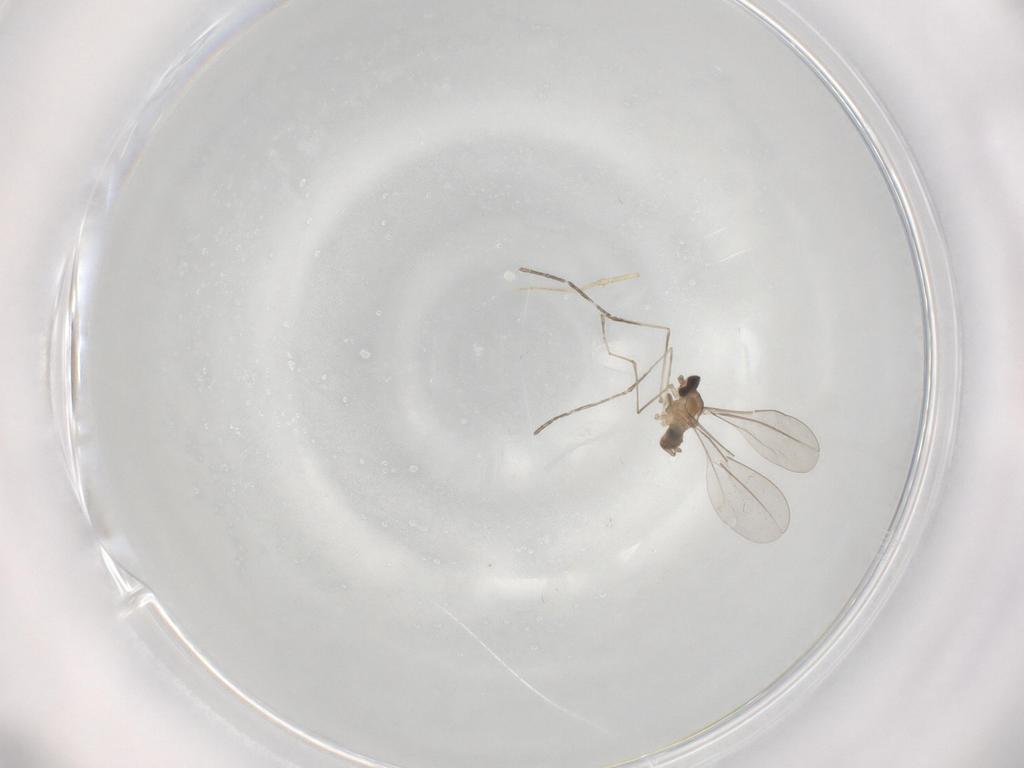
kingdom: Animalia
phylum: Arthropoda
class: Insecta
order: Diptera
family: Cecidomyiidae
